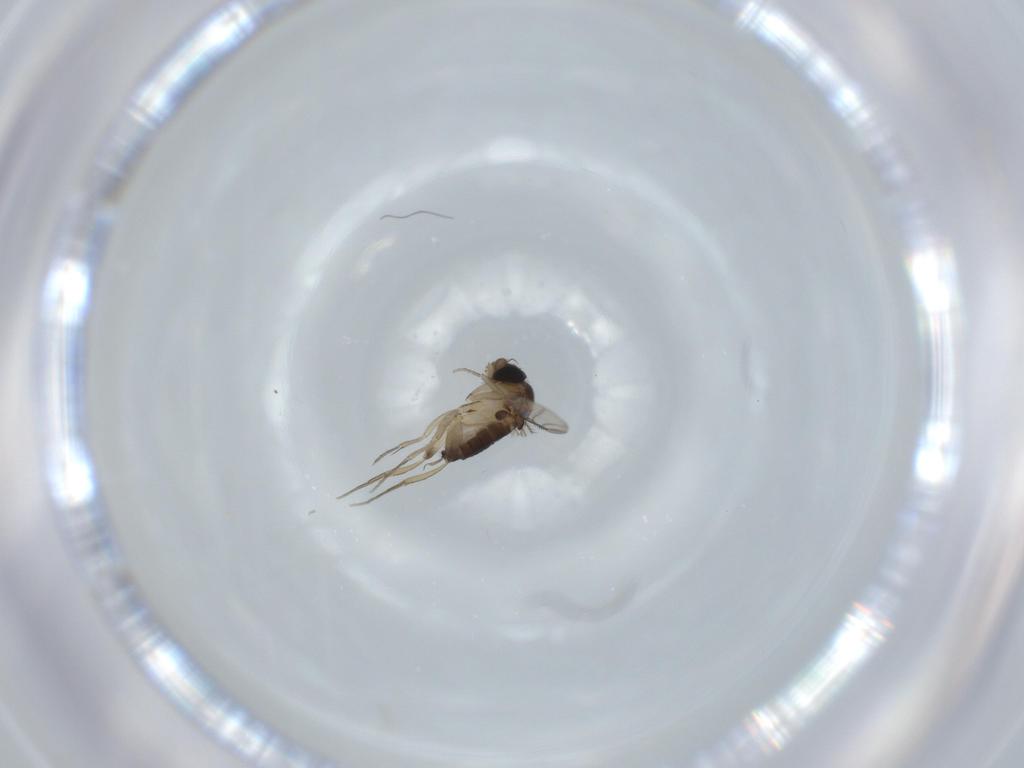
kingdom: Animalia
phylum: Arthropoda
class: Insecta
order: Diptera
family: Phoridae
